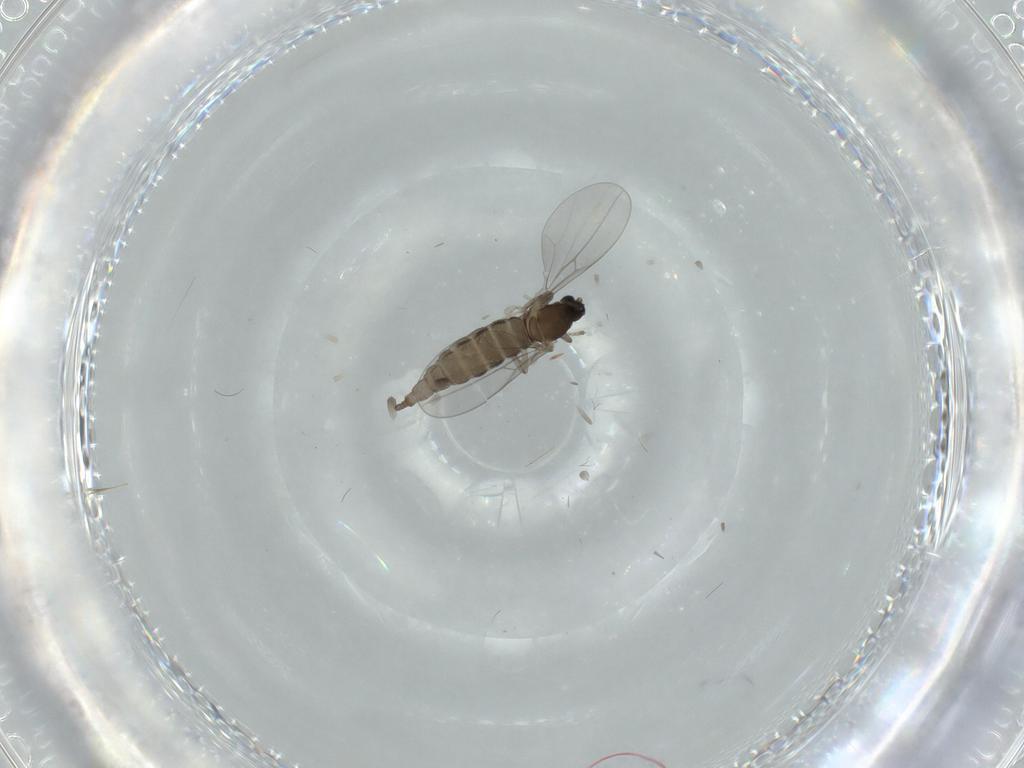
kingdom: Animalia
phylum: Arthropoda
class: Insecta
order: Diptera
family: Cecidomyiidae
